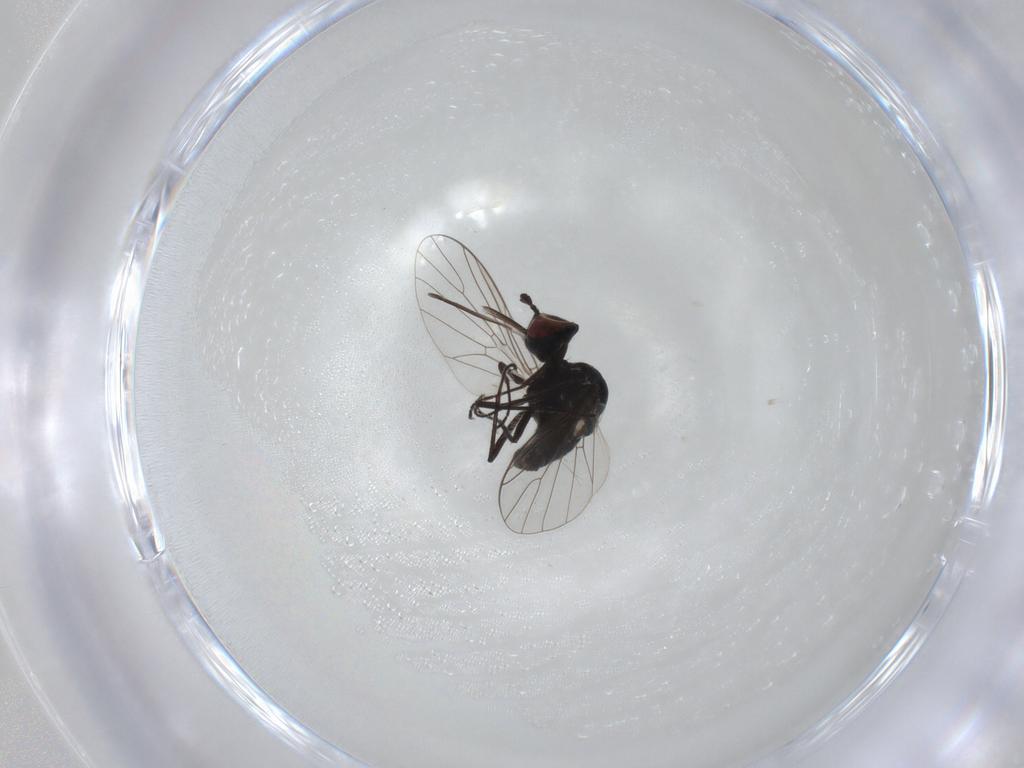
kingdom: Animalia
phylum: Arthropoda
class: Insecta
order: Diptera
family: Bombyliidae
